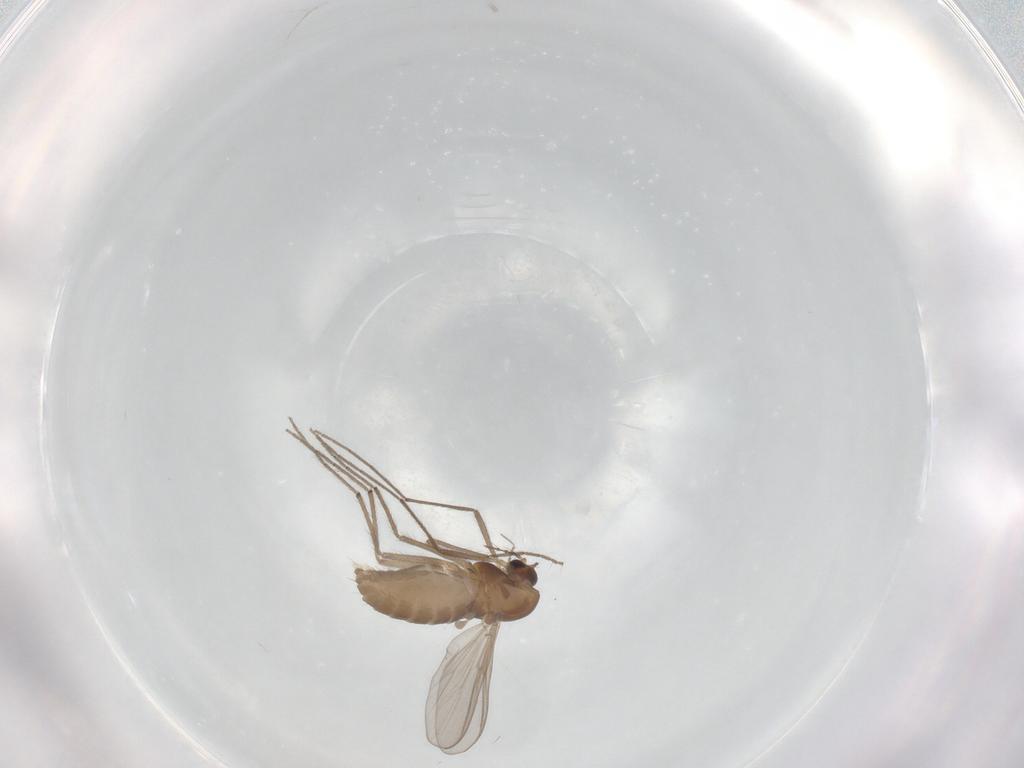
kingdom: Animalia
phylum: Arthropoda
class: Insecta
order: Diptera
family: Chironomidae
